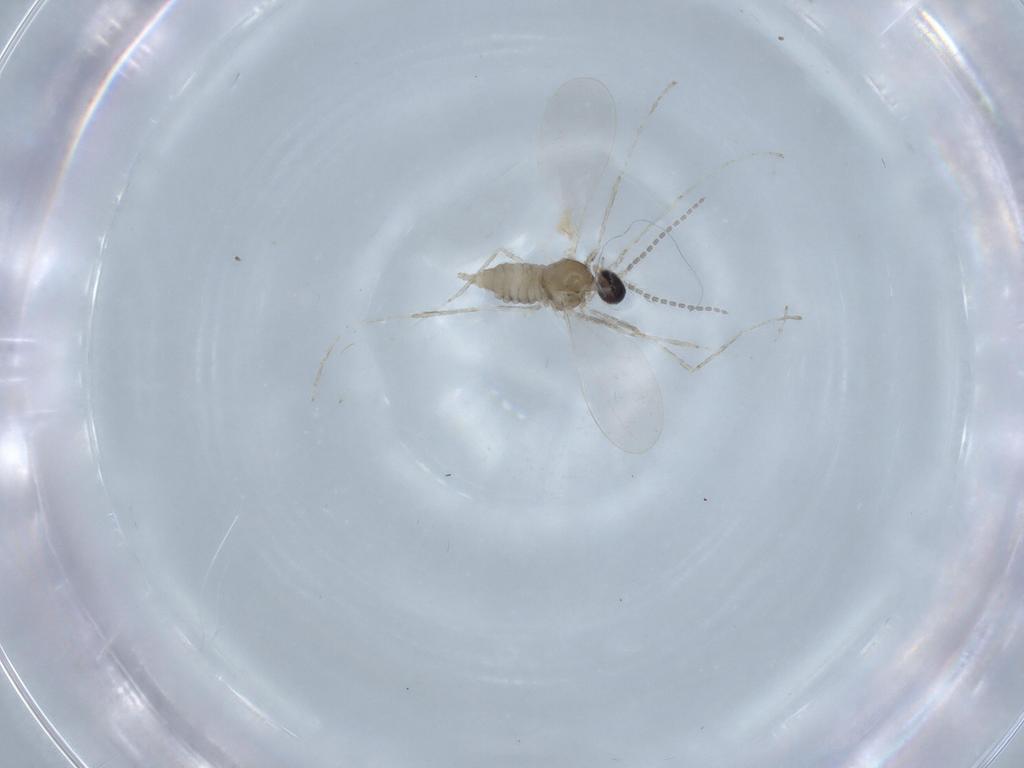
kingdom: Animalia
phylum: Arthropoda
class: Insecta
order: Diptera
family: Phoridae
